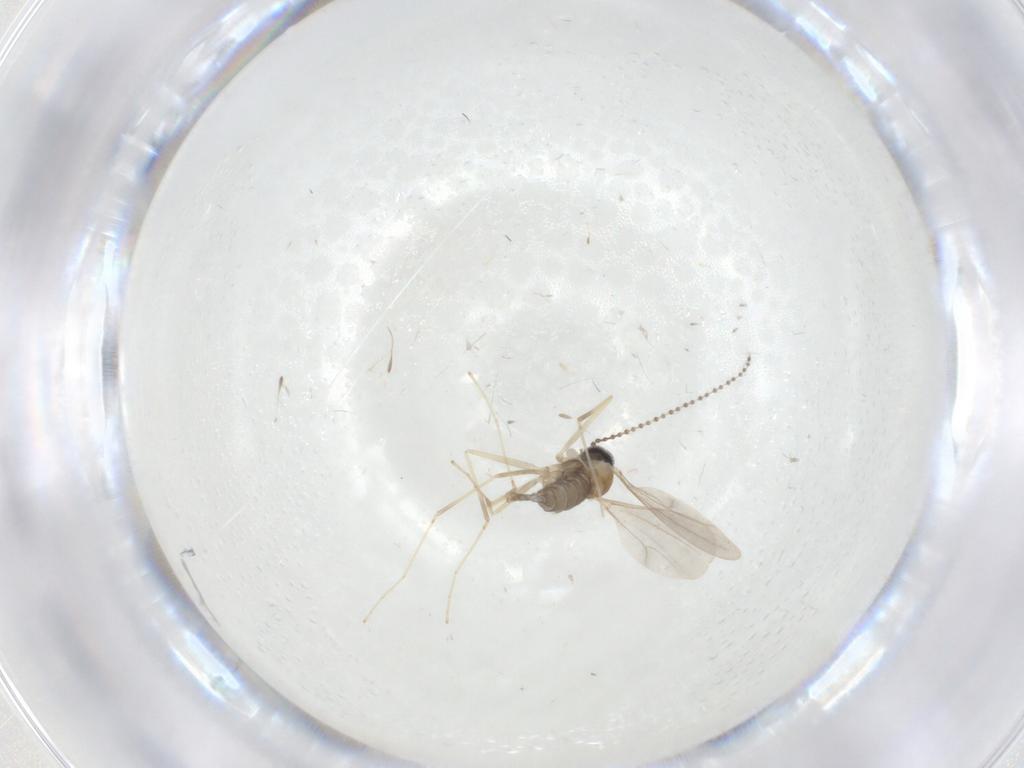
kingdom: Animalia
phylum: Arthropoda
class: Insecta
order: Diptera
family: Cecidomyiidae
